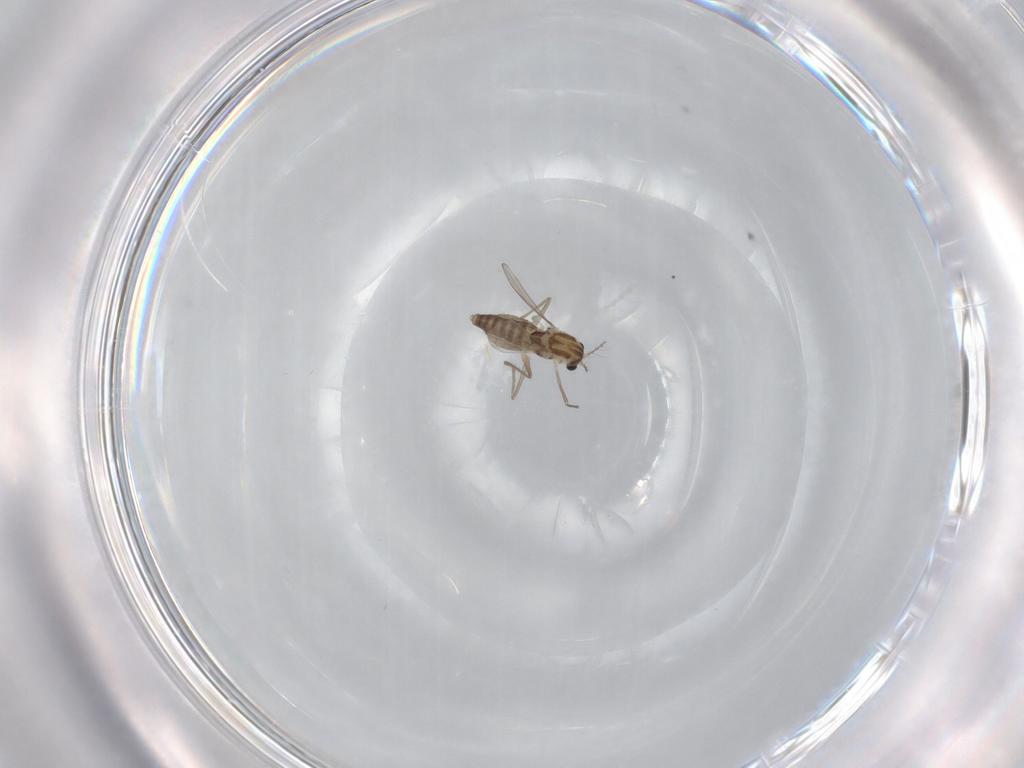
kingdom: Animalia
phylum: Arthropoda
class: Insecta
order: Diptera
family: Chironomidae
